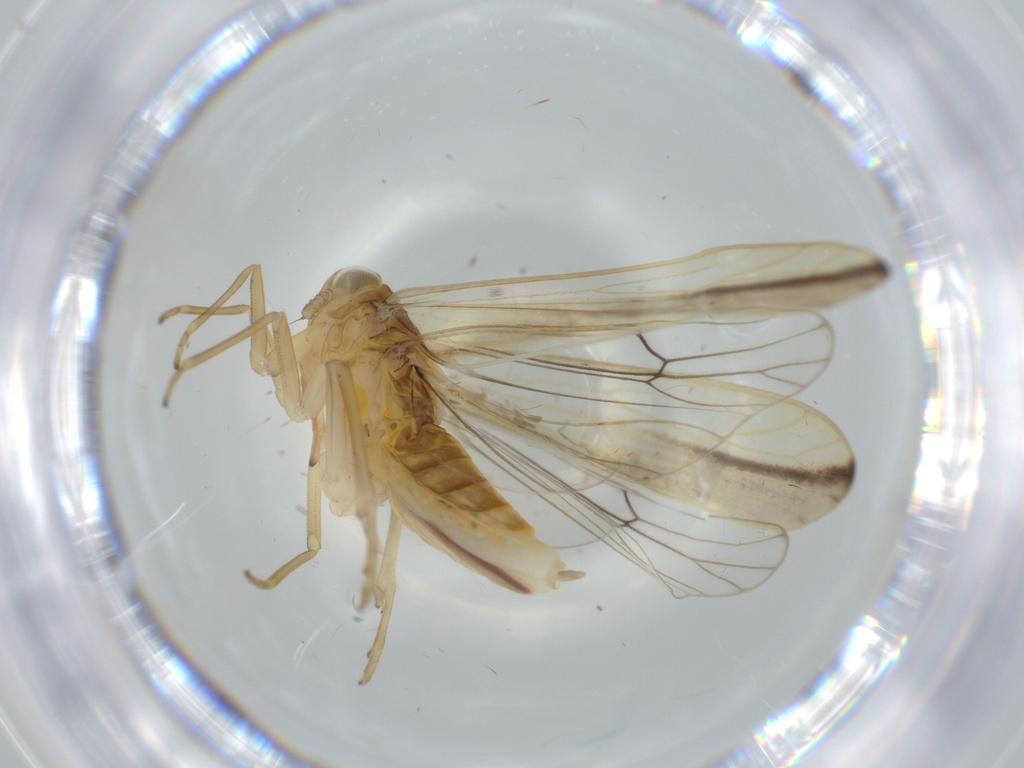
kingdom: Animalia
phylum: Arthropoda
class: Insecta
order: Hemiptera
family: Delphacidae
